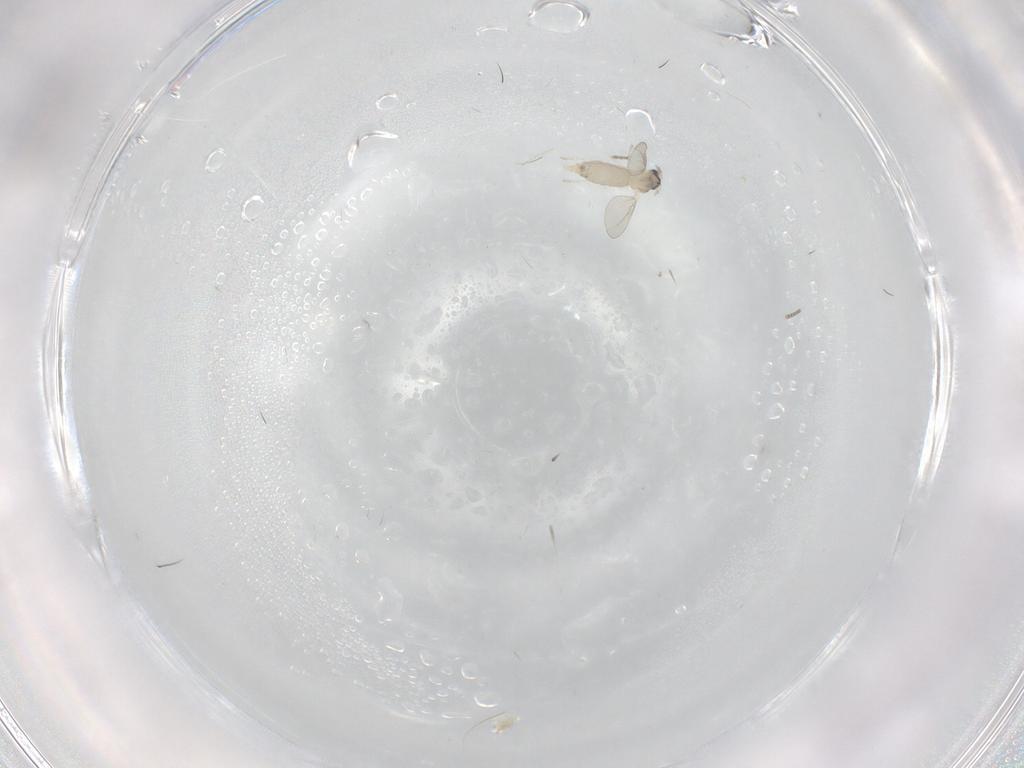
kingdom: Animalia
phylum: Arthropoda
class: Insecta
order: Diptera
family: Cecidomyiidae
